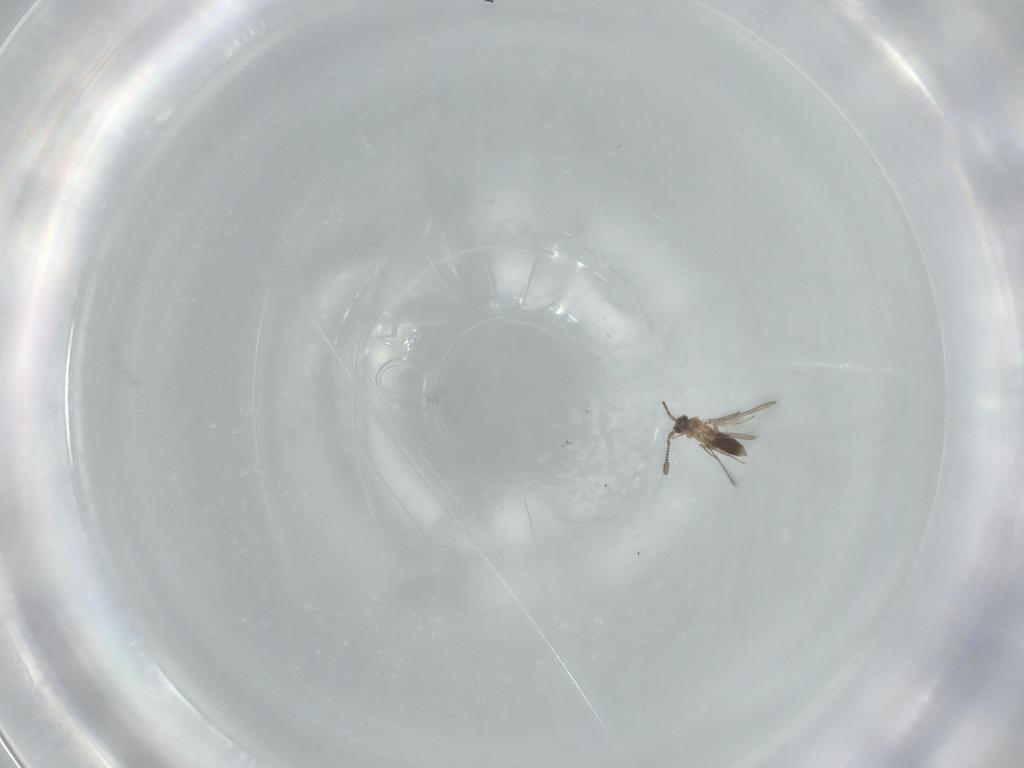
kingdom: Animalia
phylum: Arthropoda
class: Insecta
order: Hymenoptera
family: Mymaridae
